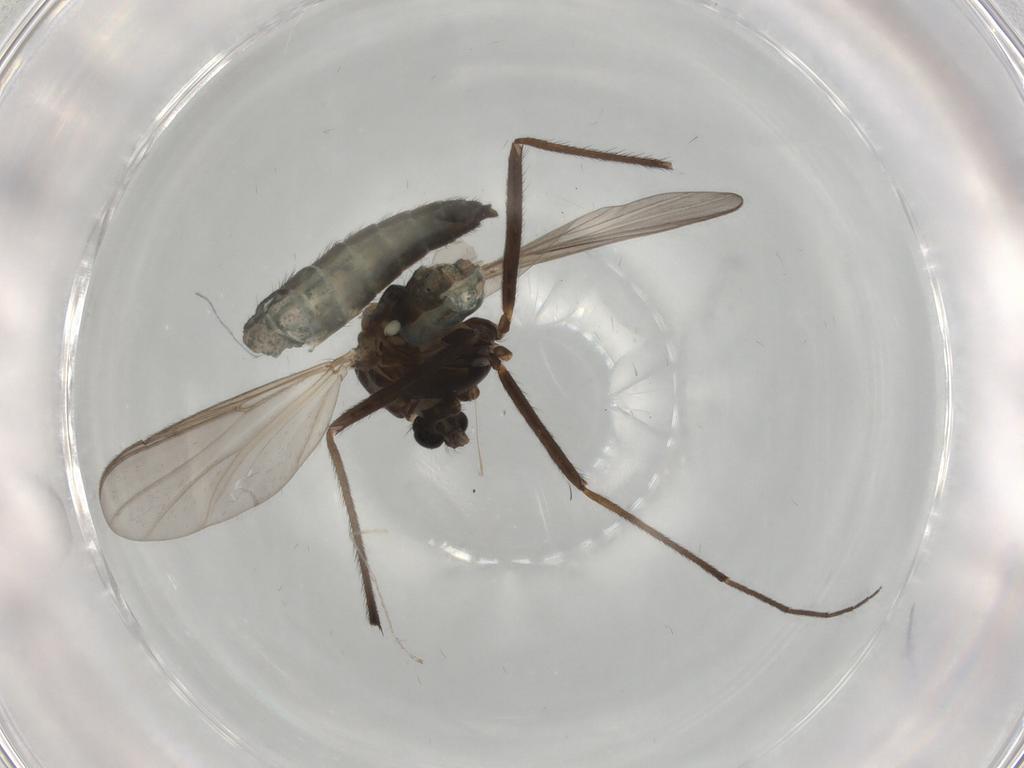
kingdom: Animalia
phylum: Arthropoda
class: Insecta
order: Diptera
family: Chironomidae
